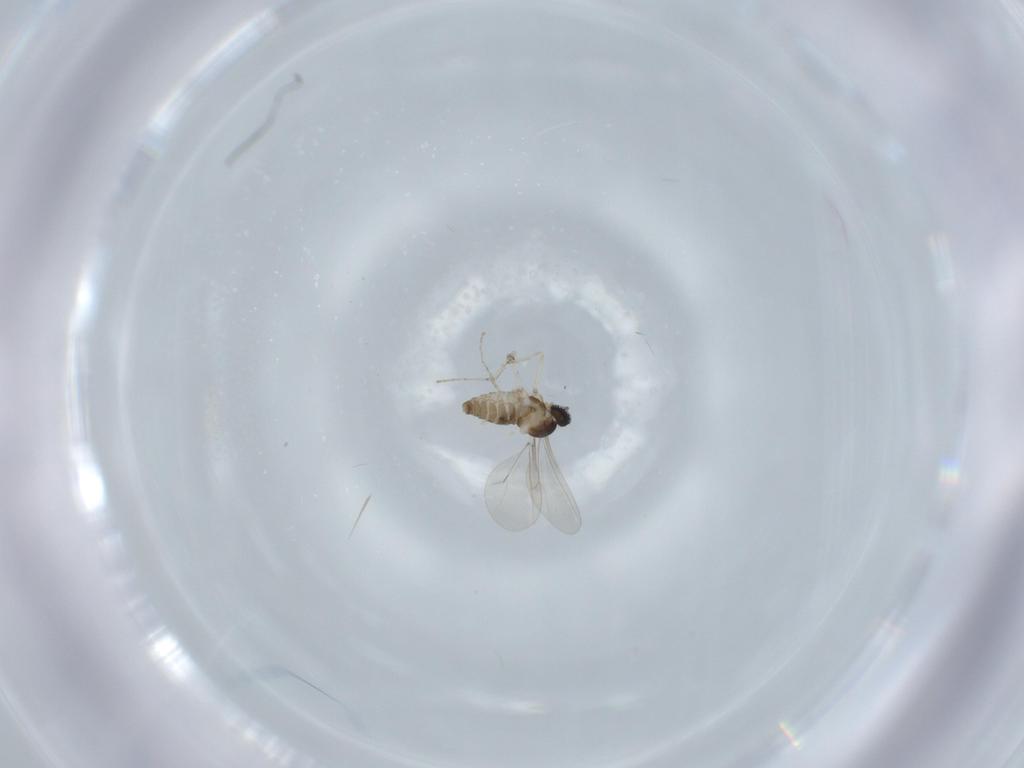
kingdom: Animalia
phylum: Arthropoda
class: Insecta
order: Diptera
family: Cecidomyiidae
